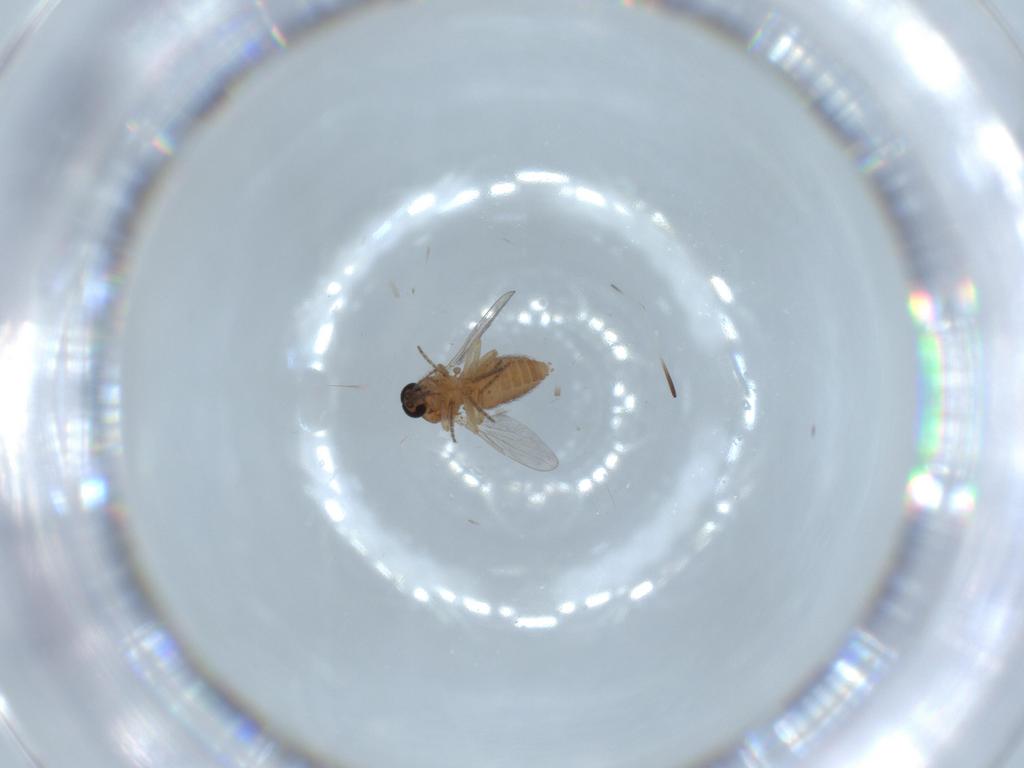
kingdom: Animalia
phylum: Arthropoda
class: Insecta
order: Diptera
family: Ceratopogonidae
